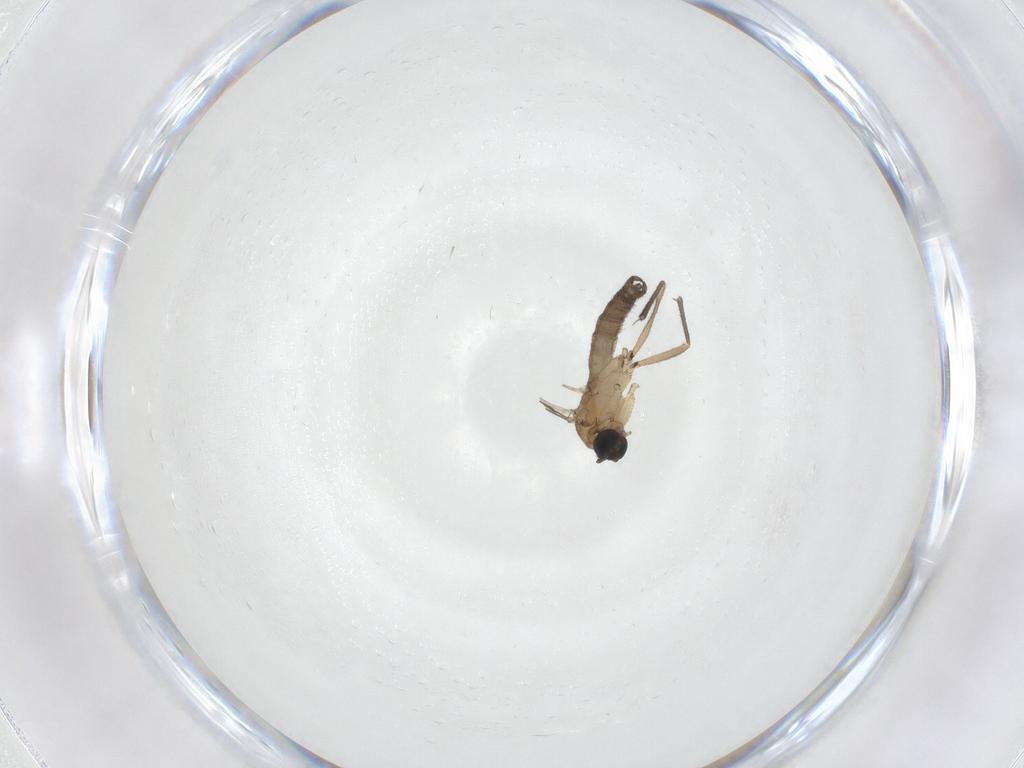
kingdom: Animalia
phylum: Arthropoda
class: Insecta
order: Diptera
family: Sciaridae
